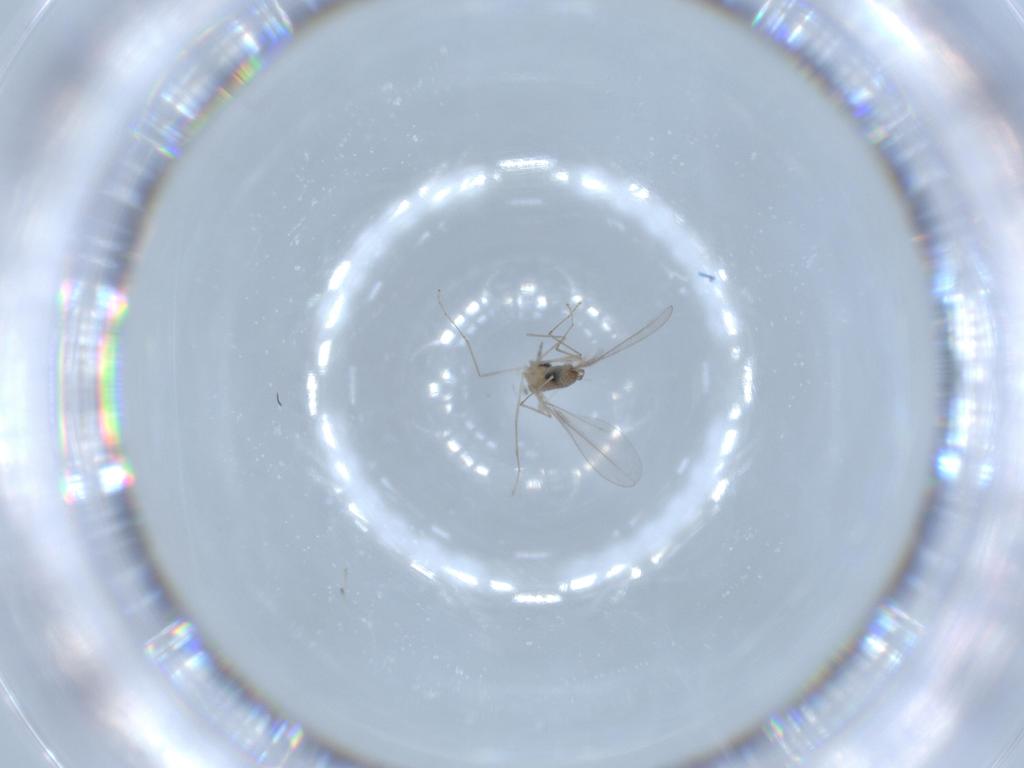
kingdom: Animalia
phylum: Arthropoda
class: Insecta
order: Diptera
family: Cecidomyiidae
